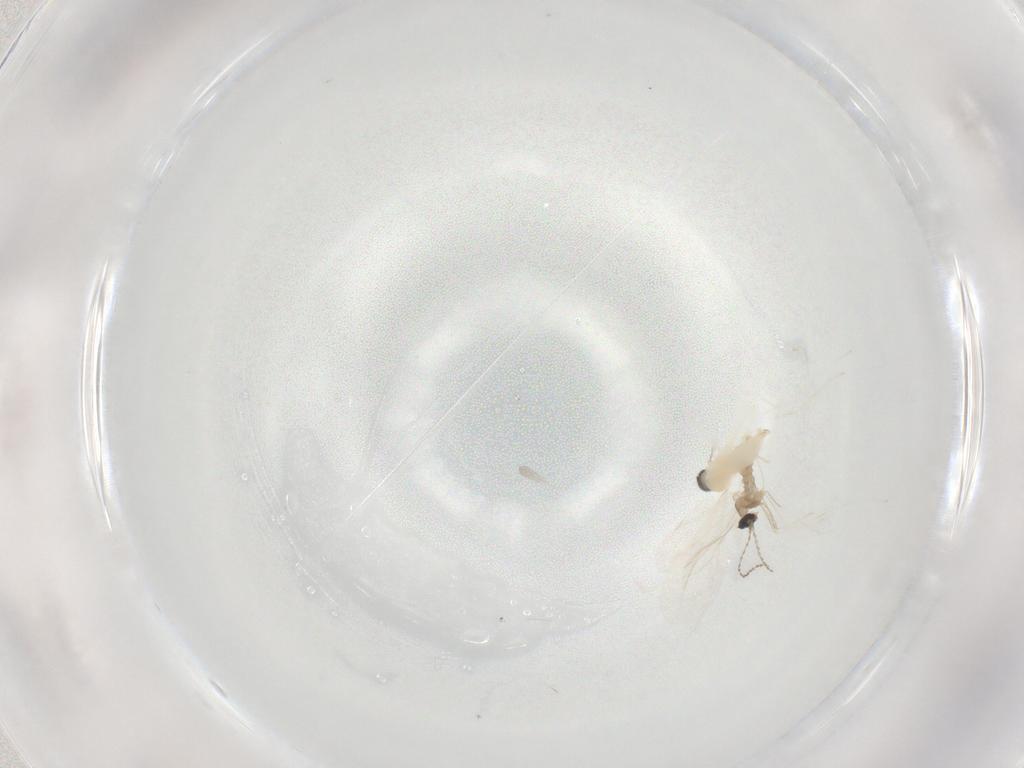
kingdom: Animalia
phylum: Arthropoda
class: Insecta
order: Diptera
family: Cecidomyiidae
